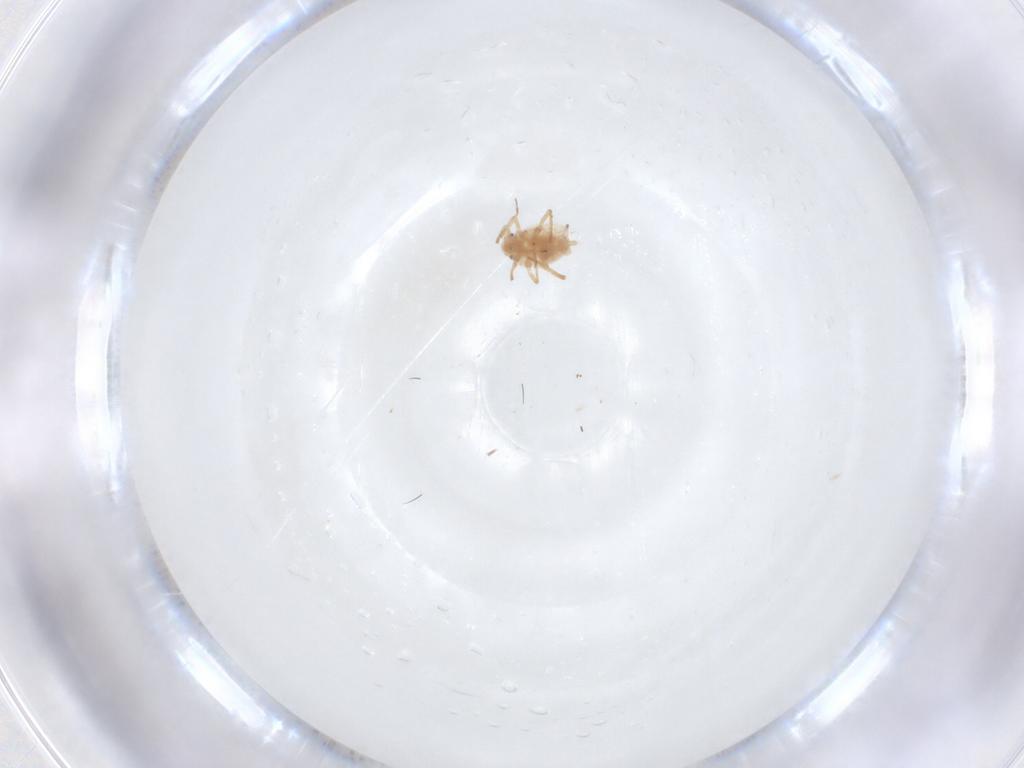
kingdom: Animalia
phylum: Arthropoda
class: Insecta
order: Hemiptera
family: Aphididae
